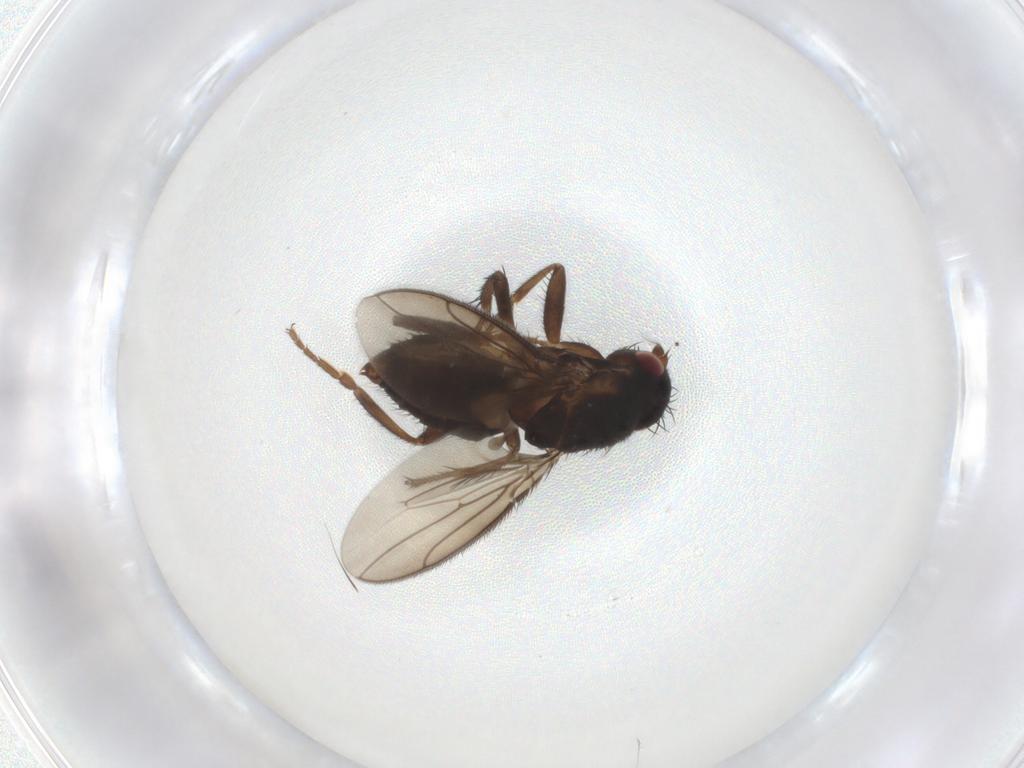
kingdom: Animalia
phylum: Arthropoda
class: Insecta
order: Diptera
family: Sphaeroceridae
